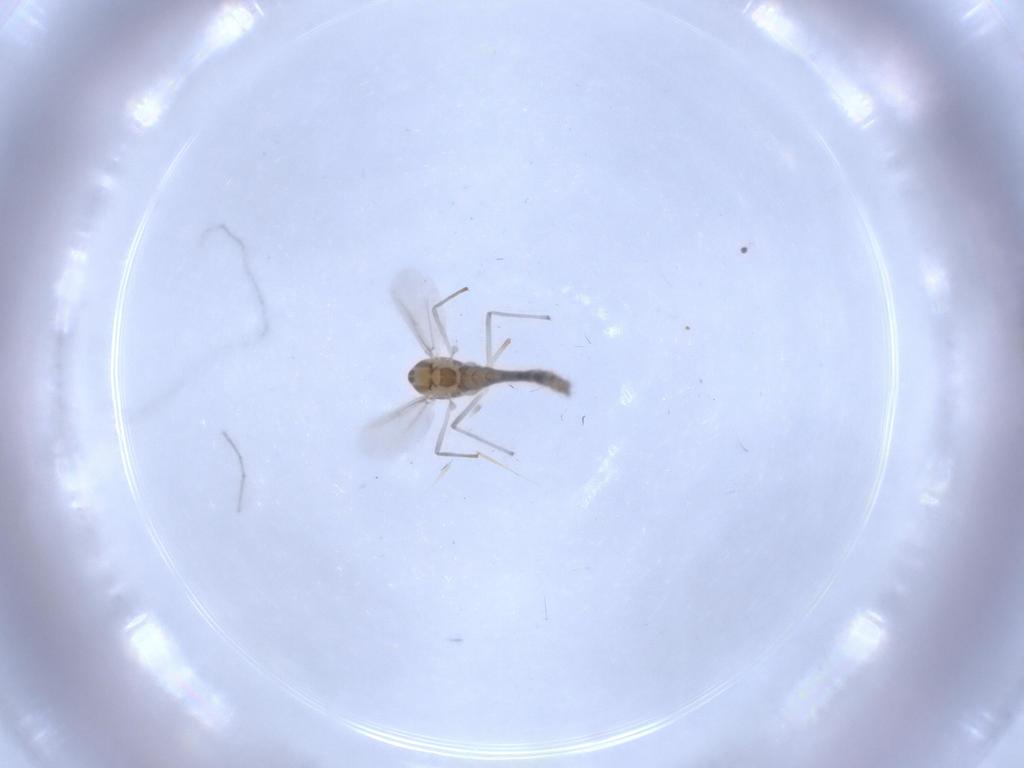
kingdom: Animalia
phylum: Arthropoda
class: Insecta
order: Diptera
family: Chironomidae
